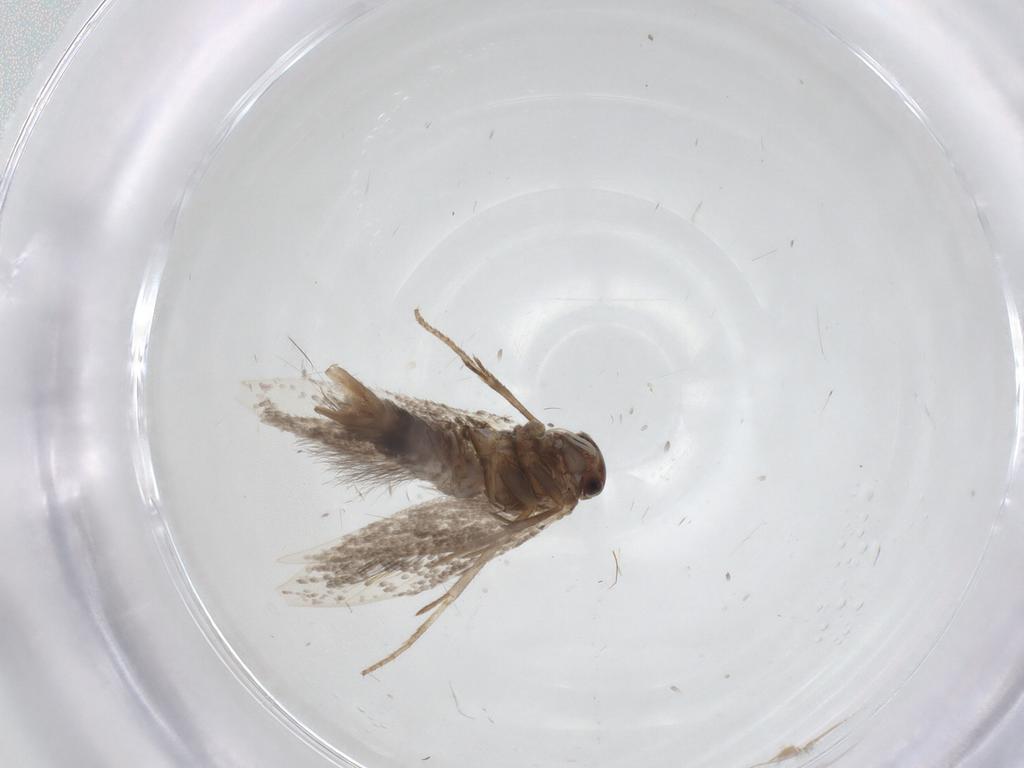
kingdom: Animalia
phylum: Arthropoda
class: Insecta
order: Lepidoptera
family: Elachistidae
